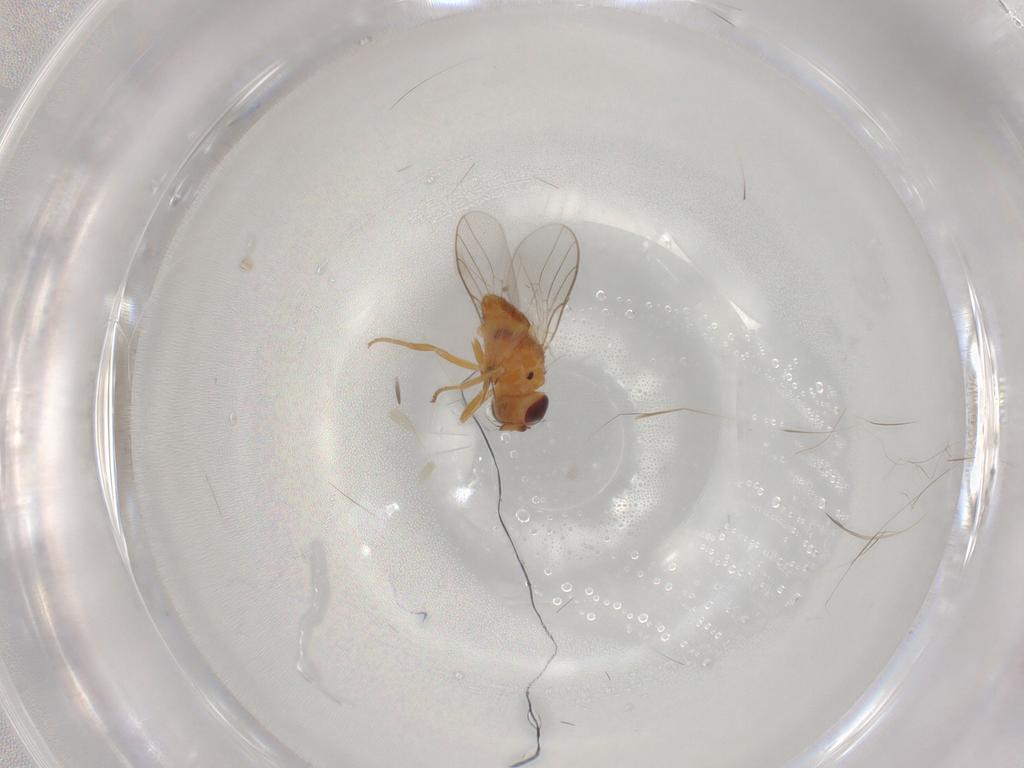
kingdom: Animalia
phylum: Arthropoda
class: Insecta
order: Diptera
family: Chloropidae
